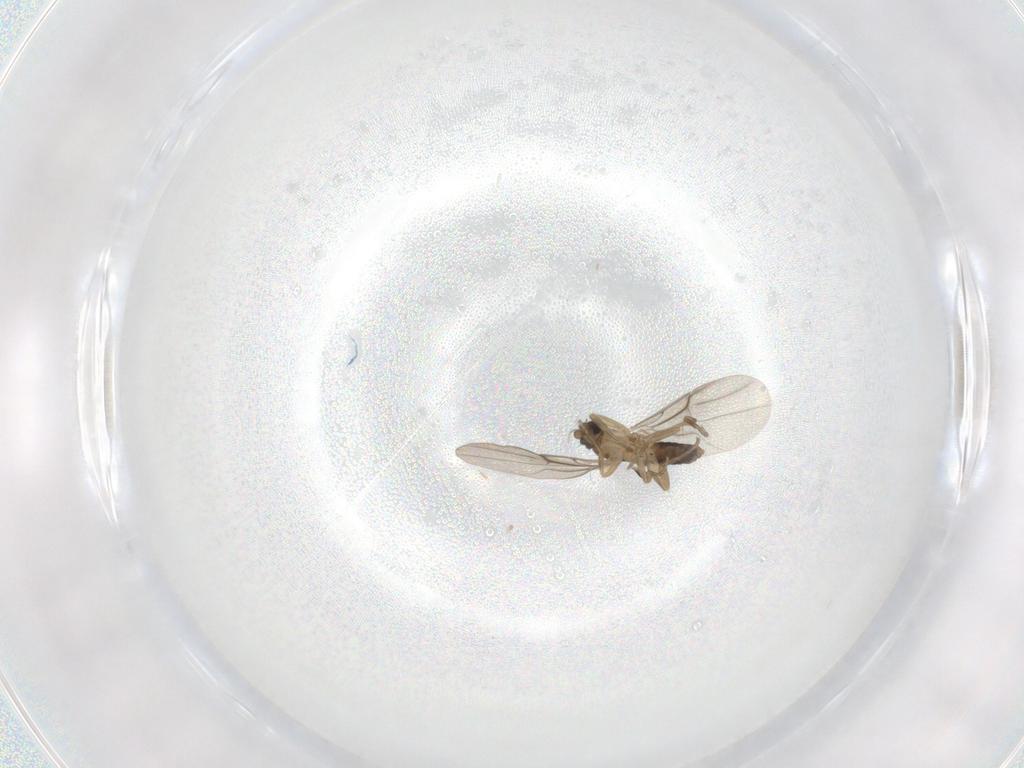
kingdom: Animalia
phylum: Arthropoda
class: Insecta
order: Diptera
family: Phoridae
